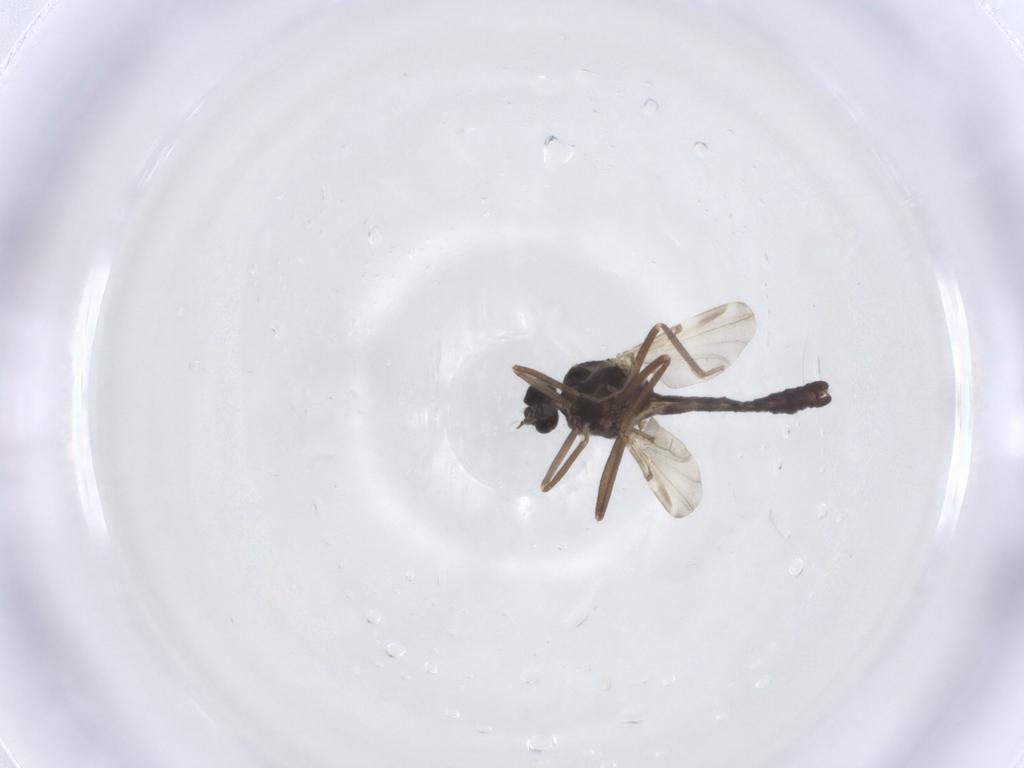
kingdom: Animalia
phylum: Arthropoda
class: Insecta
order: Diptera
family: Ceratopogonidae
